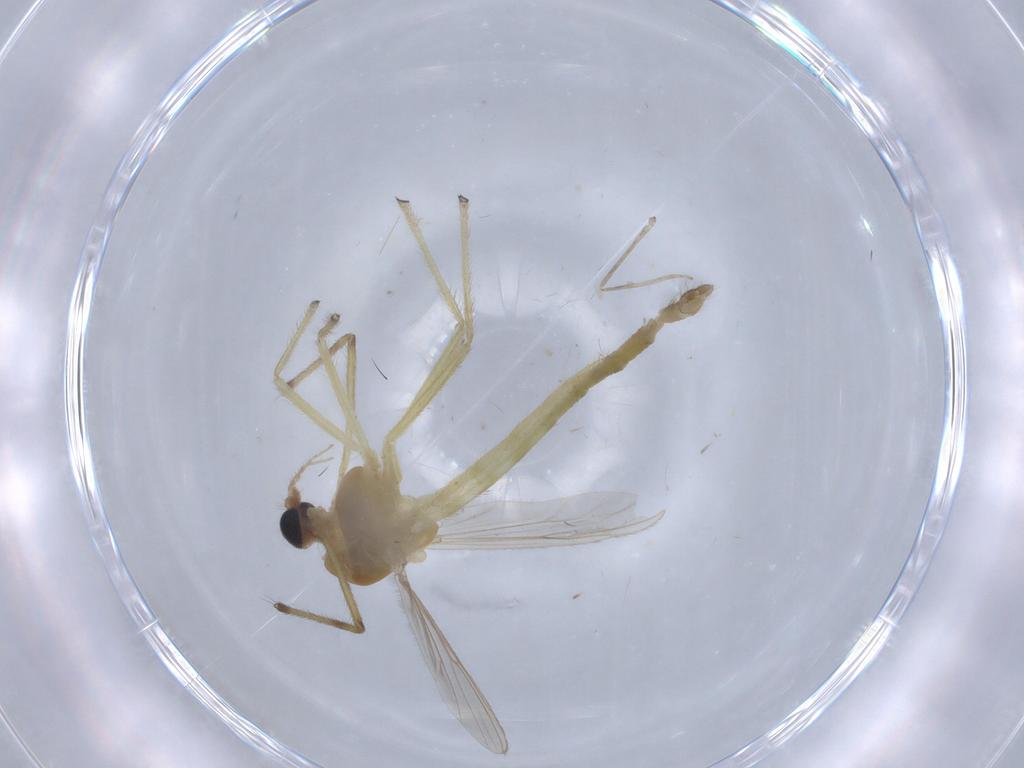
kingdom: Animalia
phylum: Arthropoda
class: Insecta
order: Diptera
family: Chironomidae
